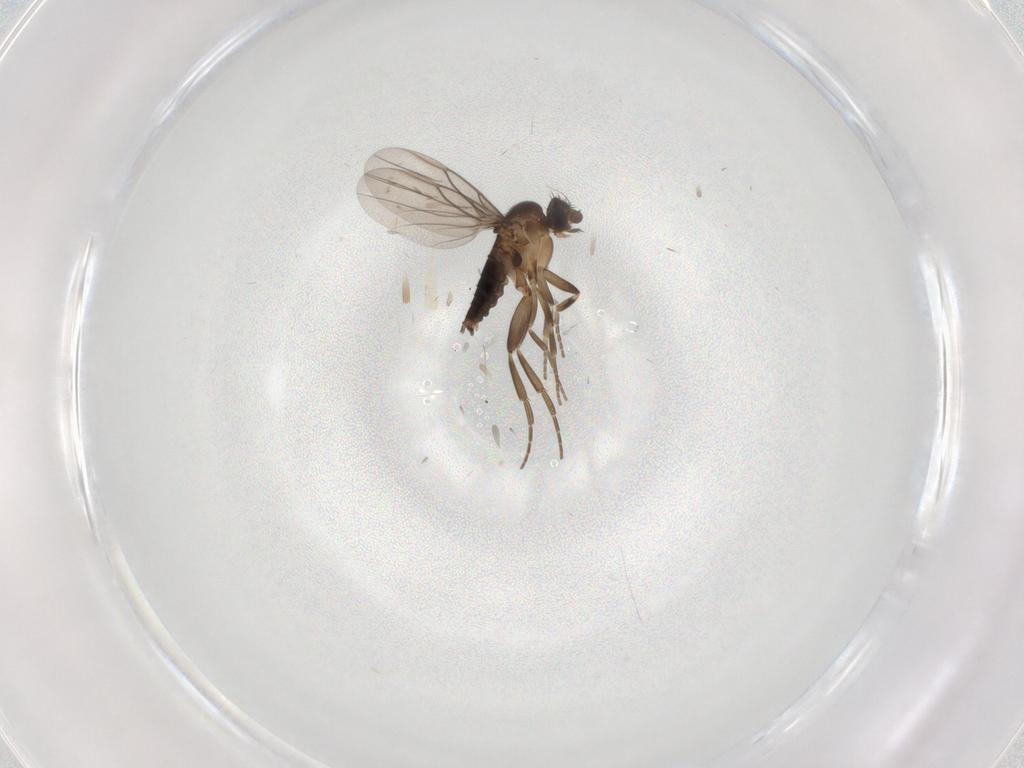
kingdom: Animalia
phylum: Arthropoda
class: Insecta
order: Diptera
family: Phoridae
